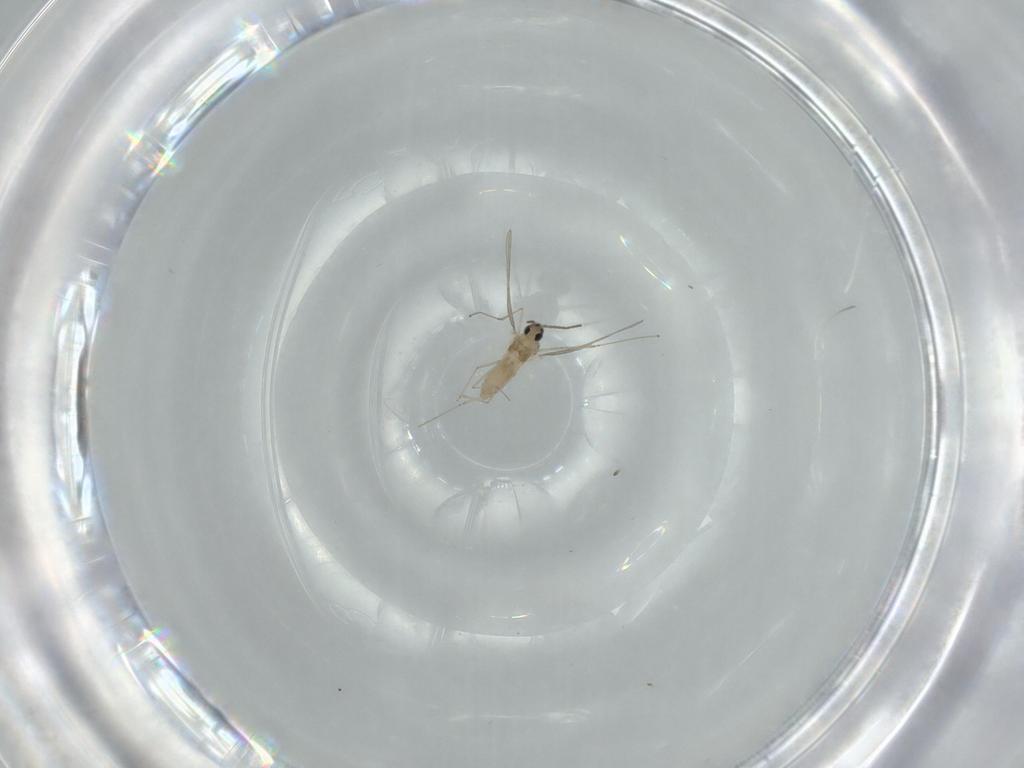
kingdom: Animalia
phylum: Arthropoda
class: Insecta
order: Diptera
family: Cecidomyiidae
